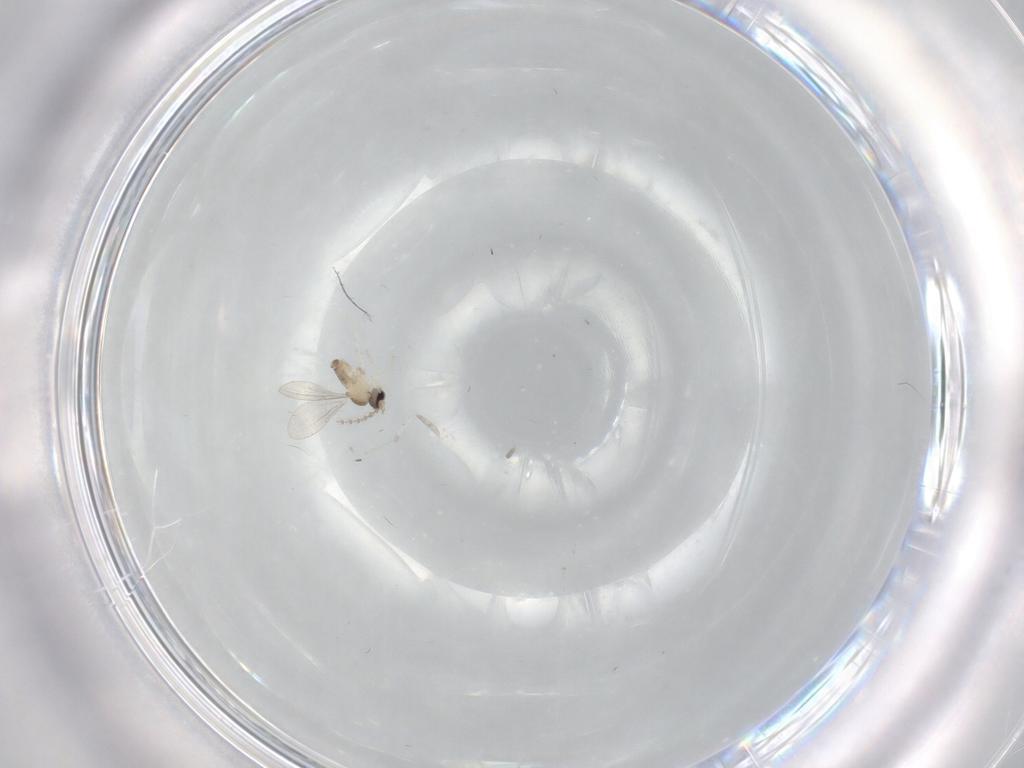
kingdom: Animalia
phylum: Arthropoda
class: Insecta
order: Diptera
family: Cecidomyiidae
